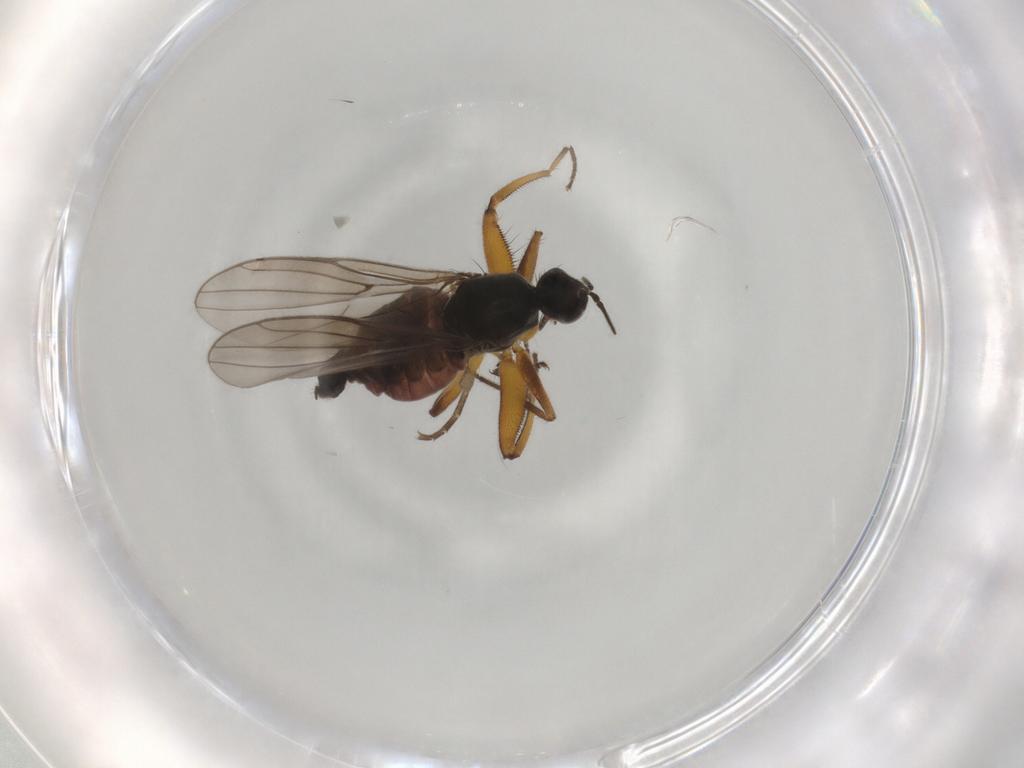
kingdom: Animalia
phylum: Arthropoda
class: Insecta
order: Diptera
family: Mycetophilidae
